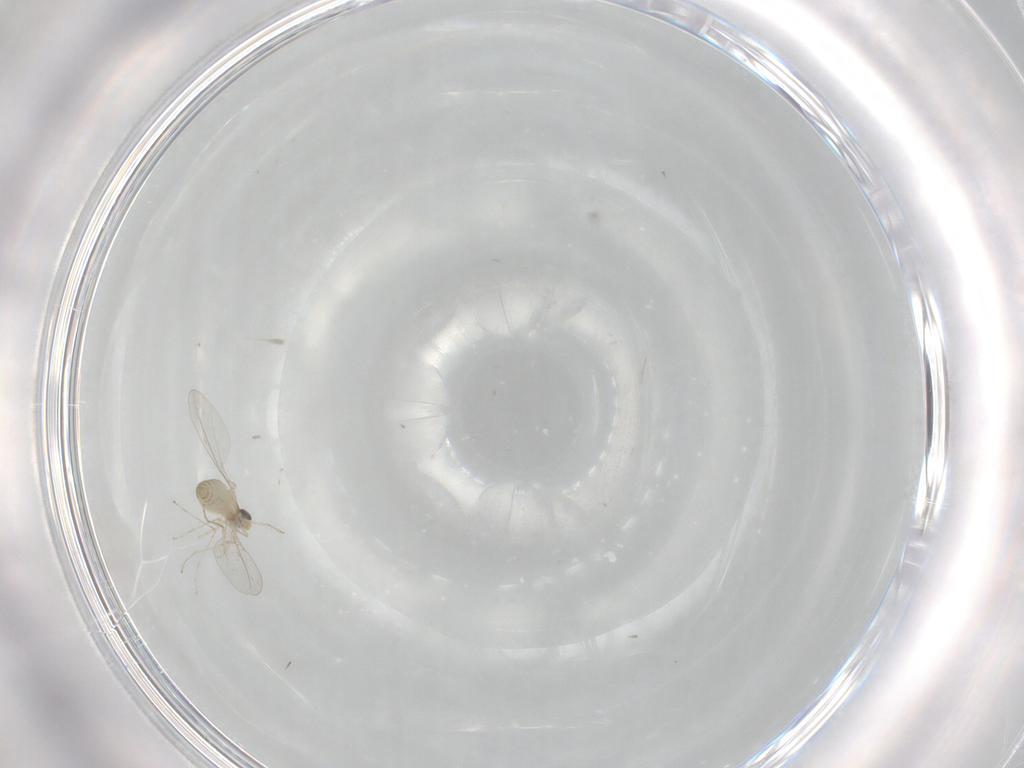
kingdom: Animalia
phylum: Arthropoda
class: Insecta
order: Diptera
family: Cecidomyiidae
